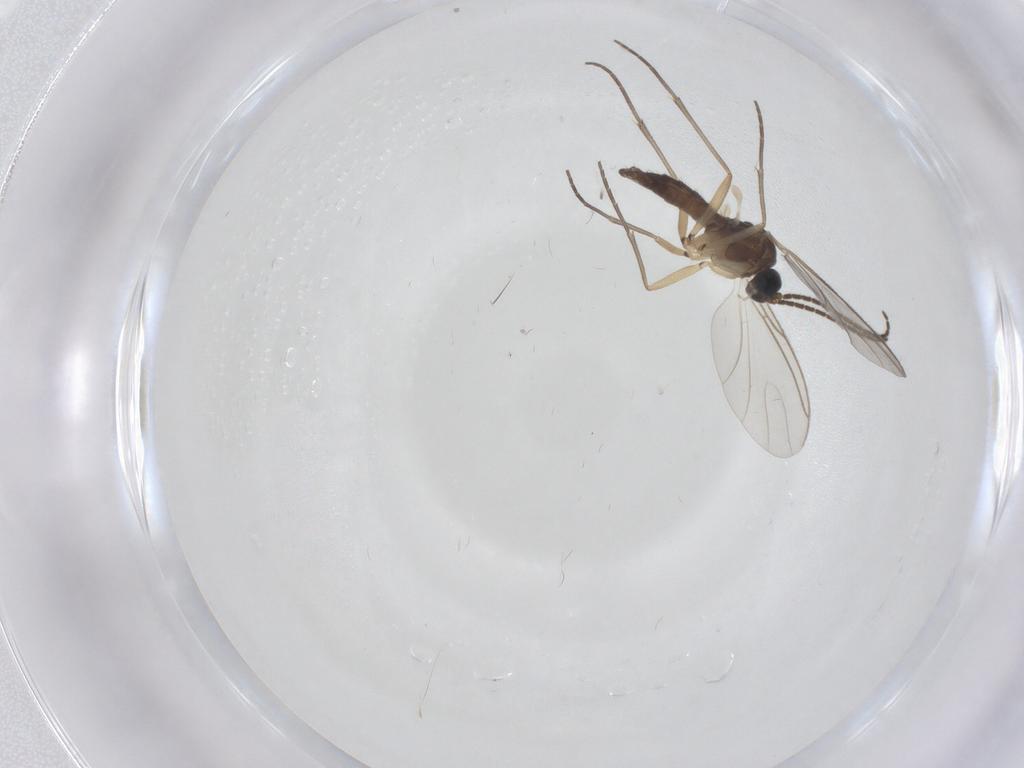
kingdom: Animalia
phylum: Arthropoda
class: Insecta
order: Diptera
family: Sciaridae
